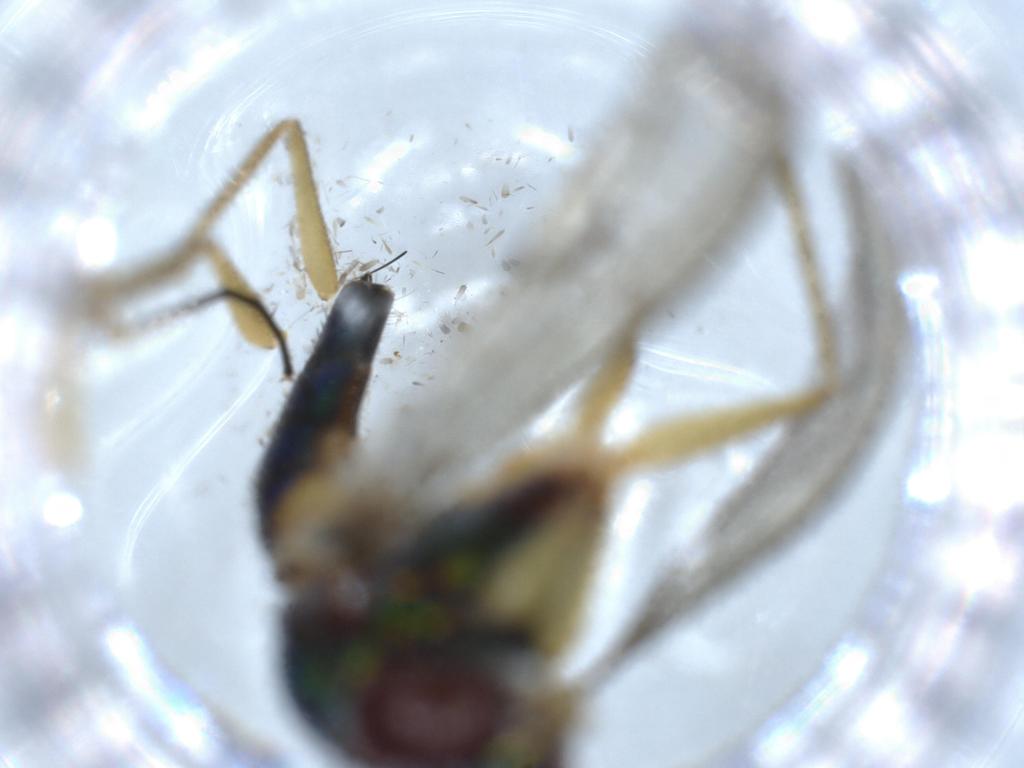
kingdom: Animalia
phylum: Arthropoda
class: Insecta
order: Diptera
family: Dolichopodidae
